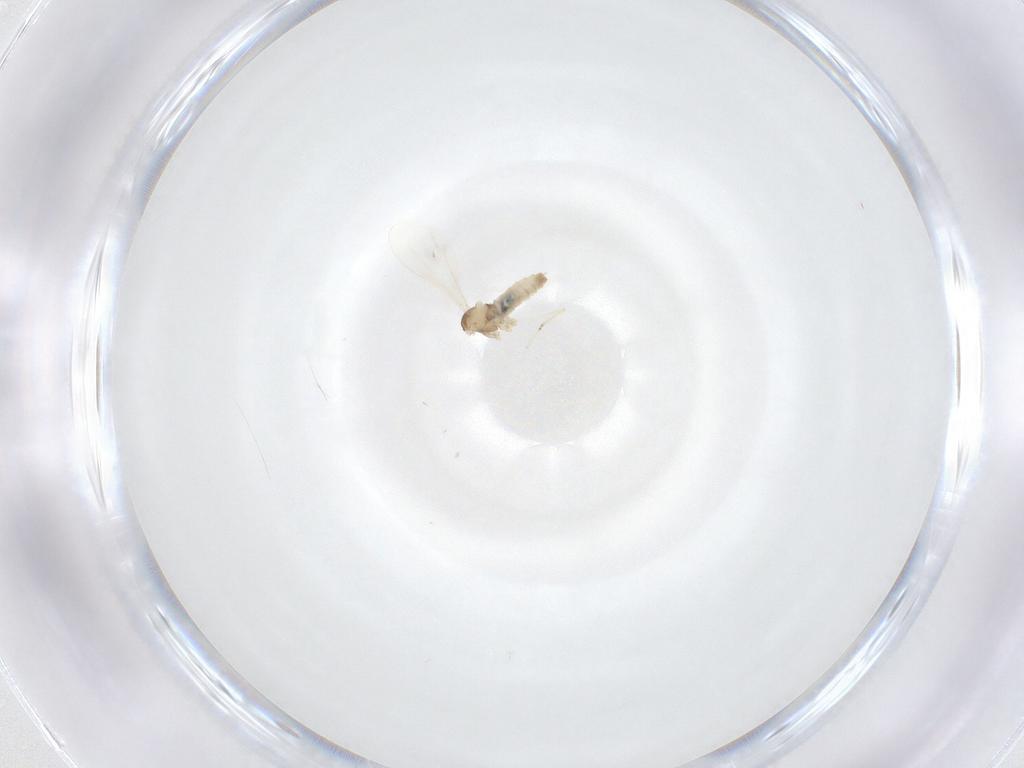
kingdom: Animalia
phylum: Arthropoda
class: Insecta
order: Diptera
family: Cecidomyiidae
